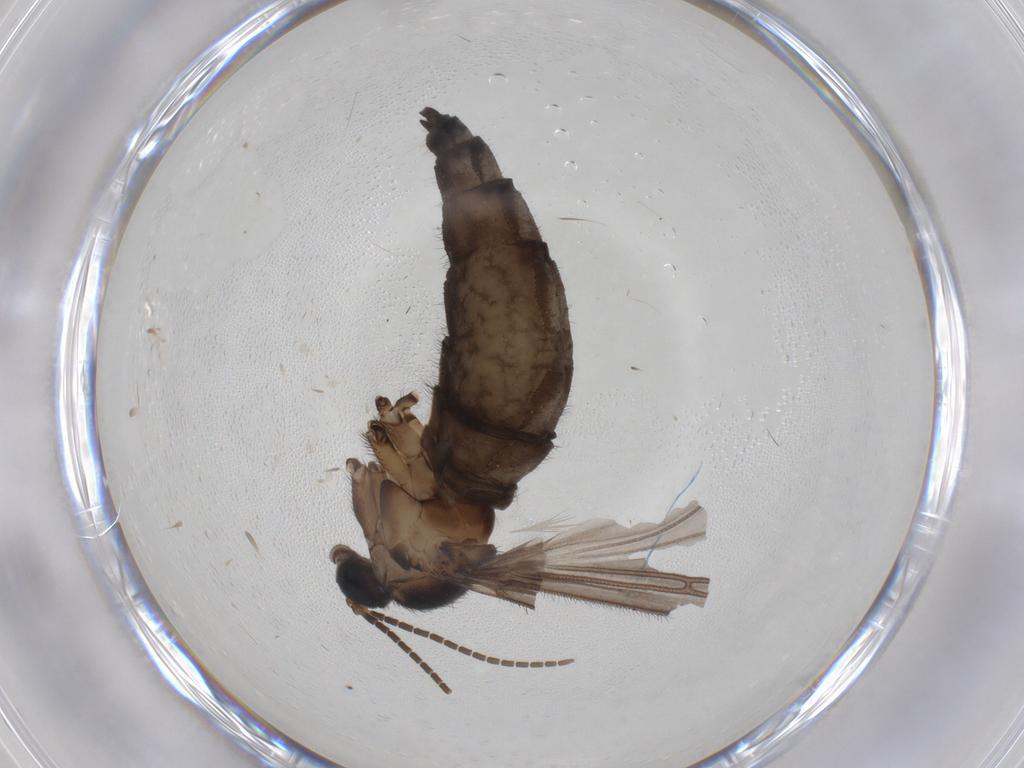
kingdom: Animalia
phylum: Arthropoda
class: Insecta
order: Diptera
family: Sciaridae
